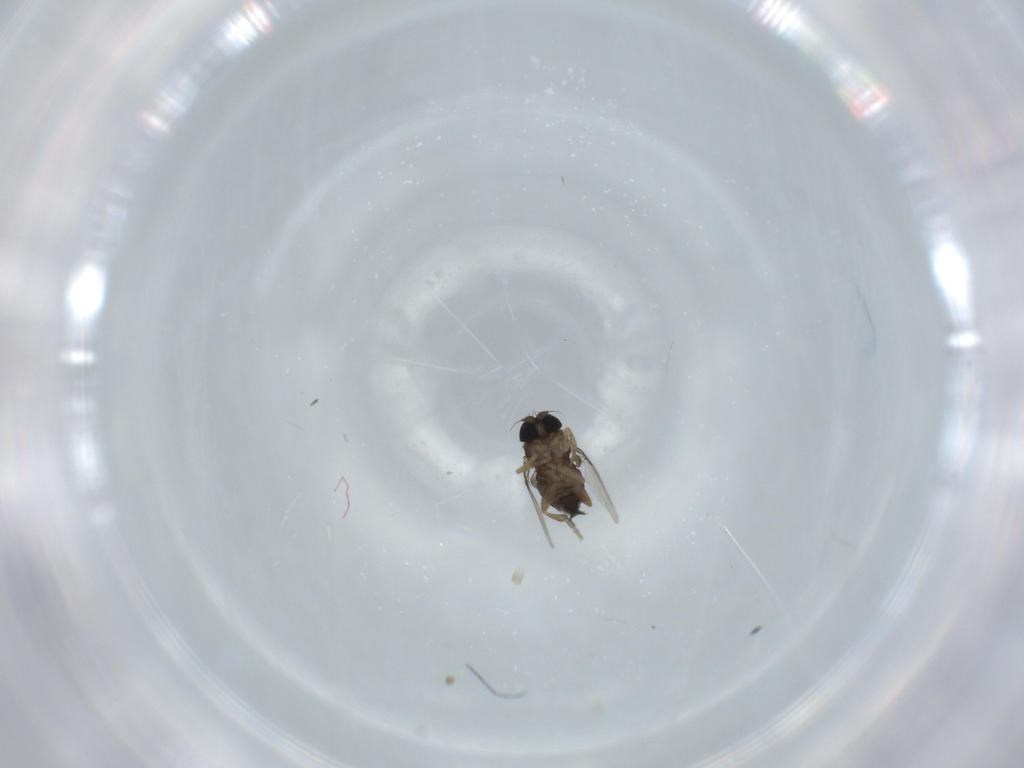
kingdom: Animalia
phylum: Arthropoda
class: Insecta
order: Diptera
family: Phoridae
